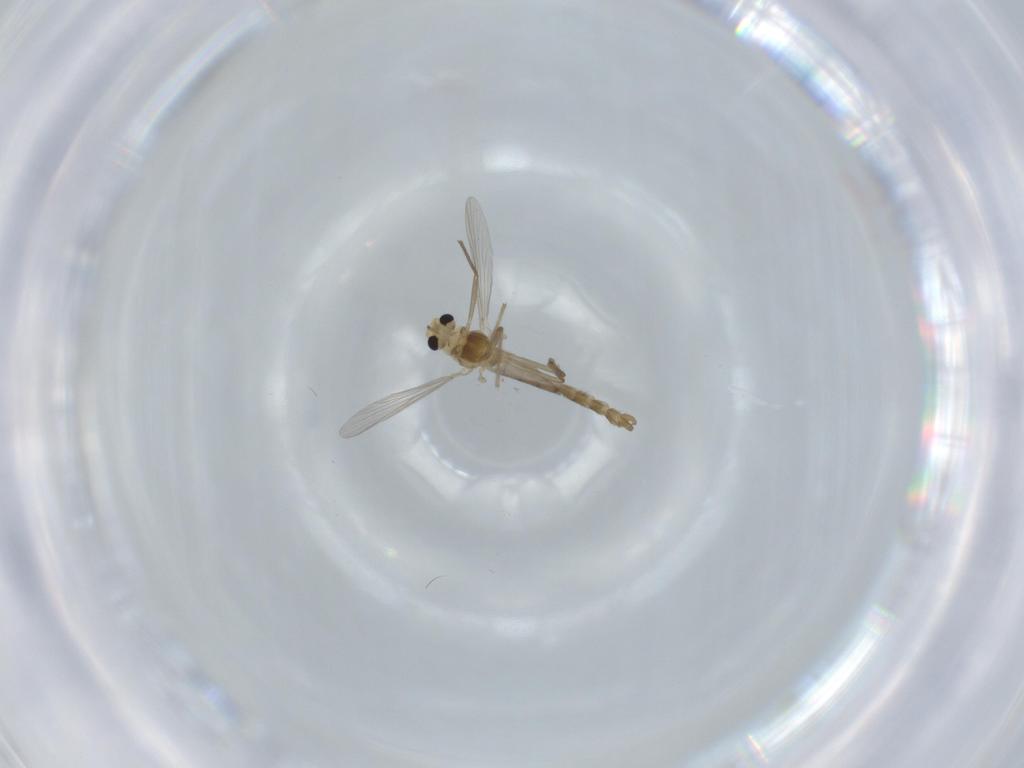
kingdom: Animalia
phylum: Arthropoda
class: Insecta
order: Diptera
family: Chironomidae
